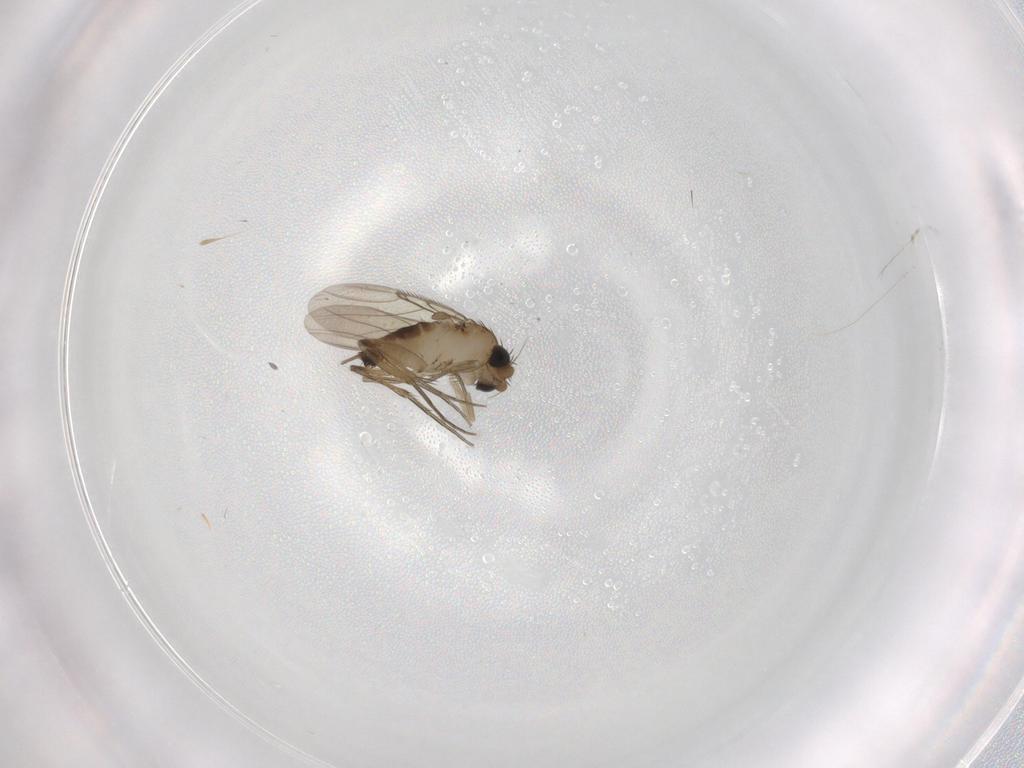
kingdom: Animalia
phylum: Arthropoda
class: Insecta
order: Diptera
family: Phoridae
